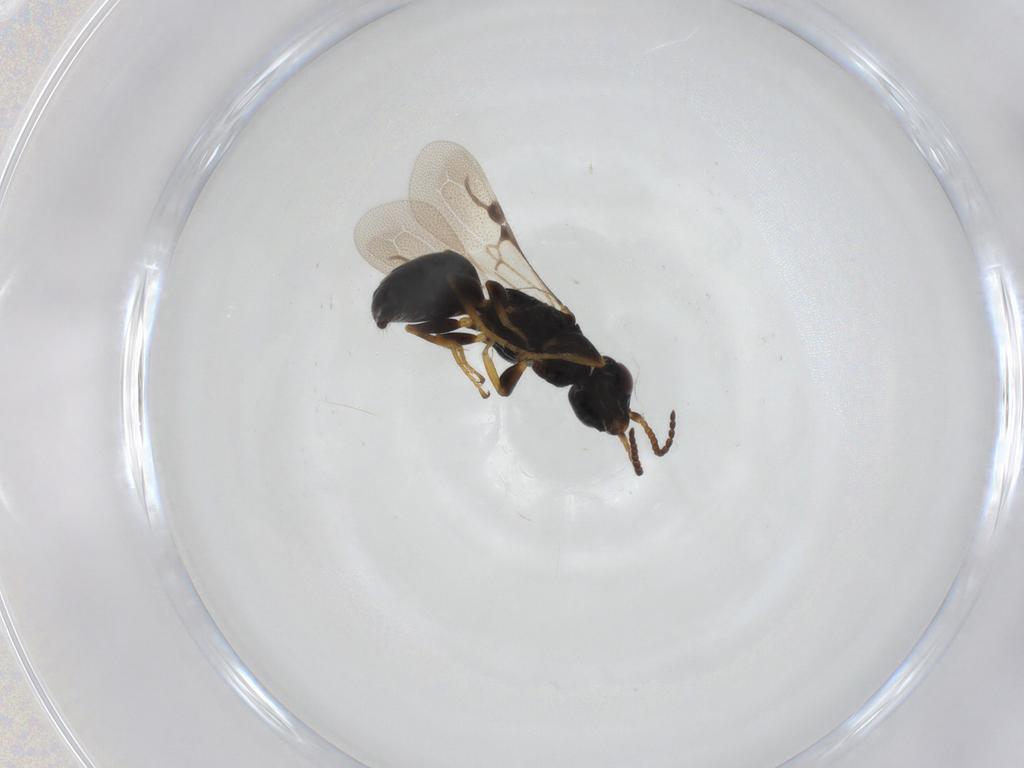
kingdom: Animalia
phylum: Arthropoda
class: Insecta
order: Hymenoptera
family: Bethylidae
